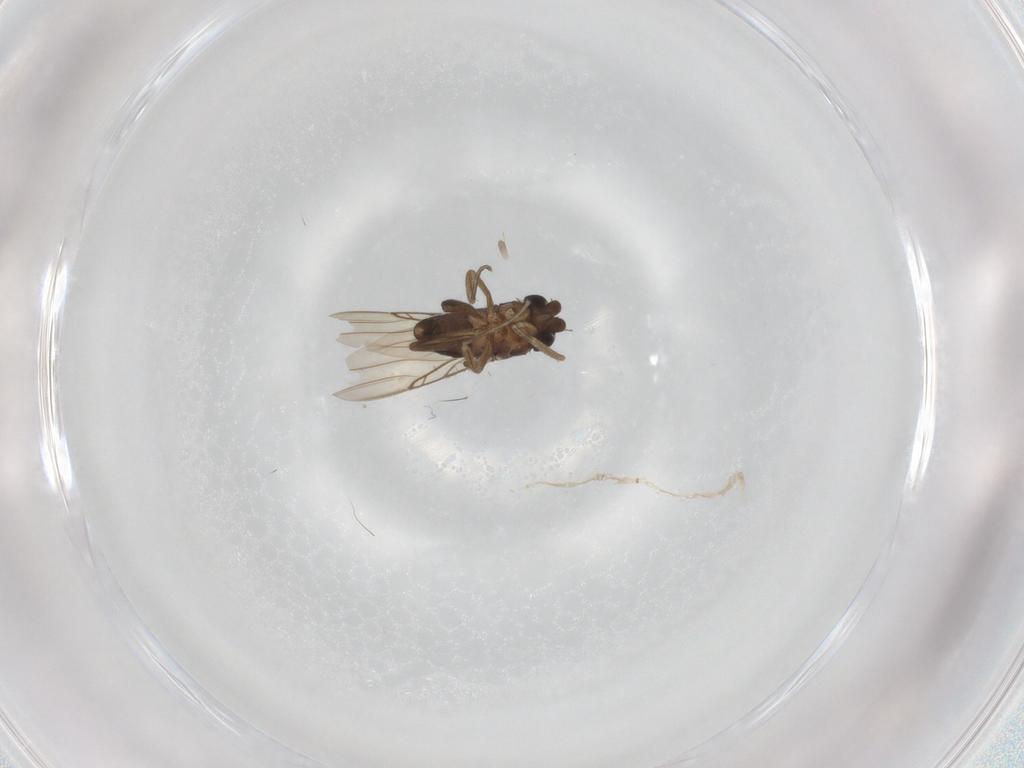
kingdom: Animalia
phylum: Arthropoda
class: Insecta
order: Diptera
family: Phoridae
